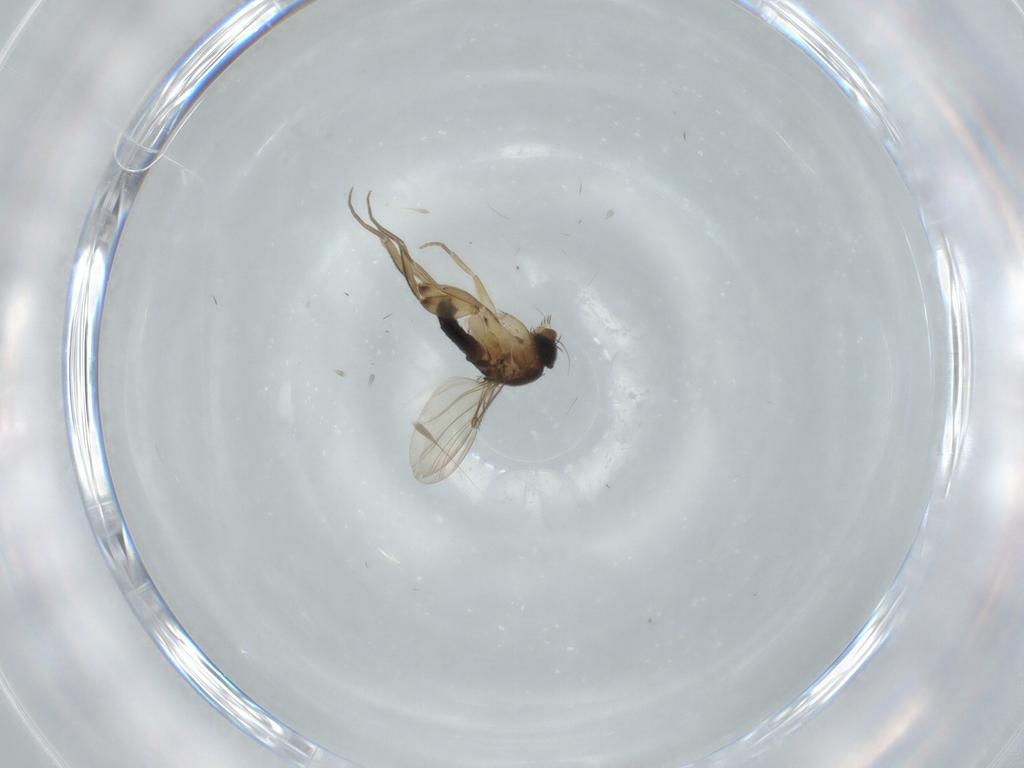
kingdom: Animalia
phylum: Arthropoda
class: Insecta
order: Diptera
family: Phoridae
